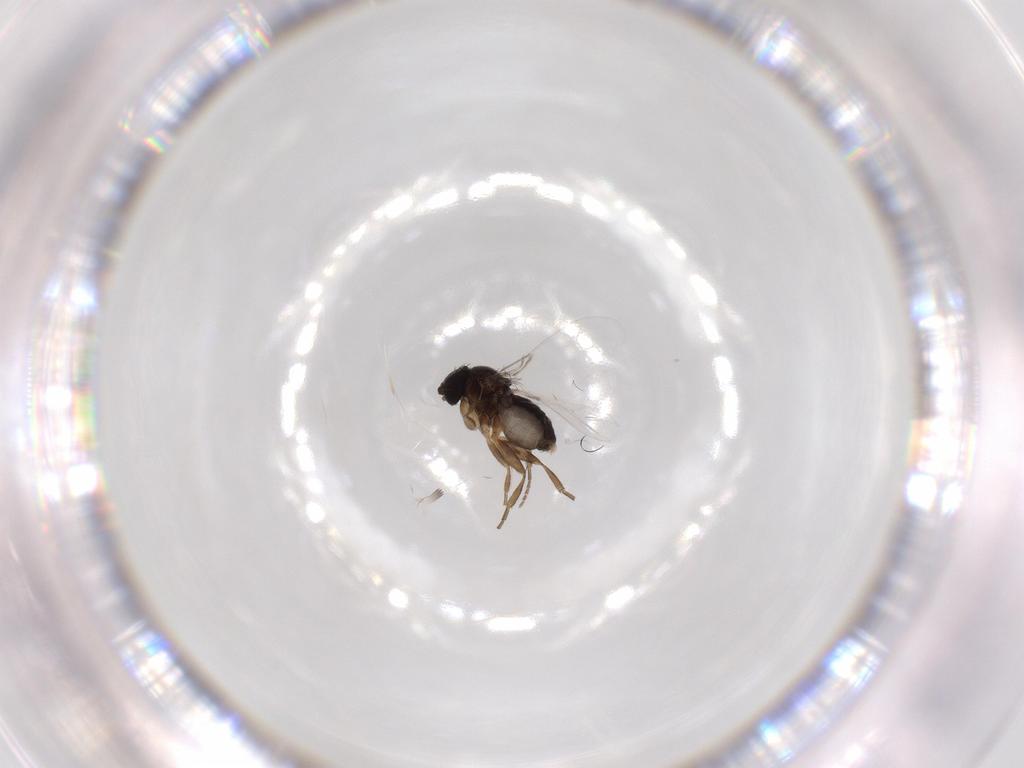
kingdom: Animalia
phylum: Arthropoda
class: Insecta
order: Diptera
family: Phoridae
